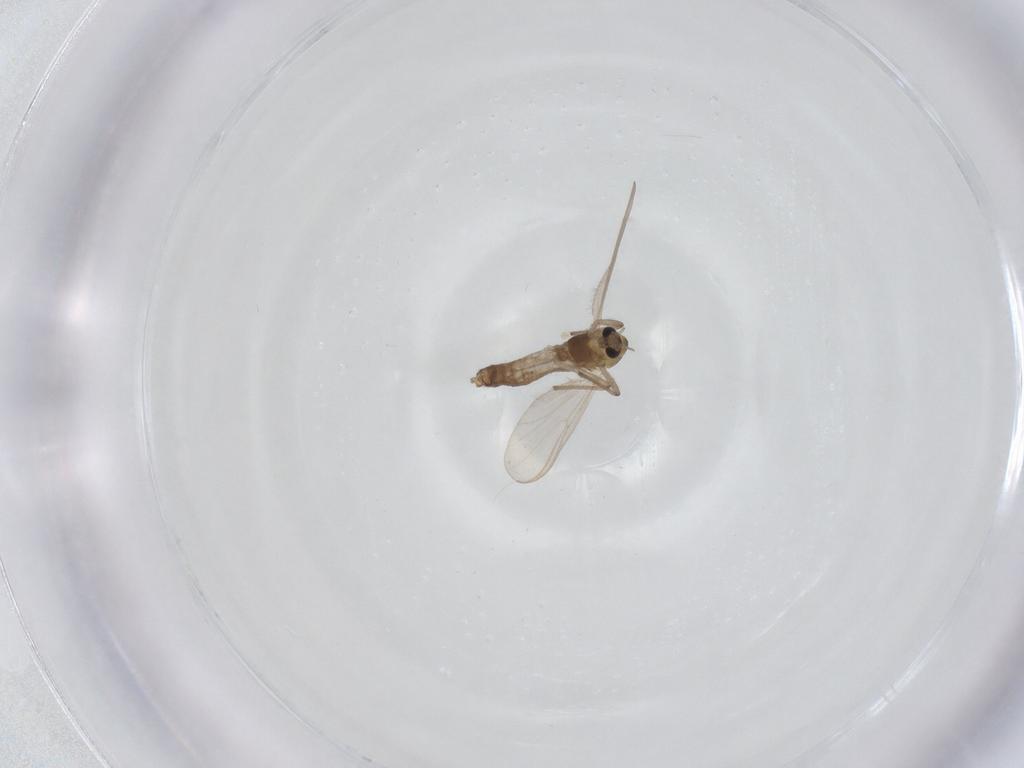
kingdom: Animalia
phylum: Arthropoda
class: Insecta
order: Diptera
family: Chironomidae
